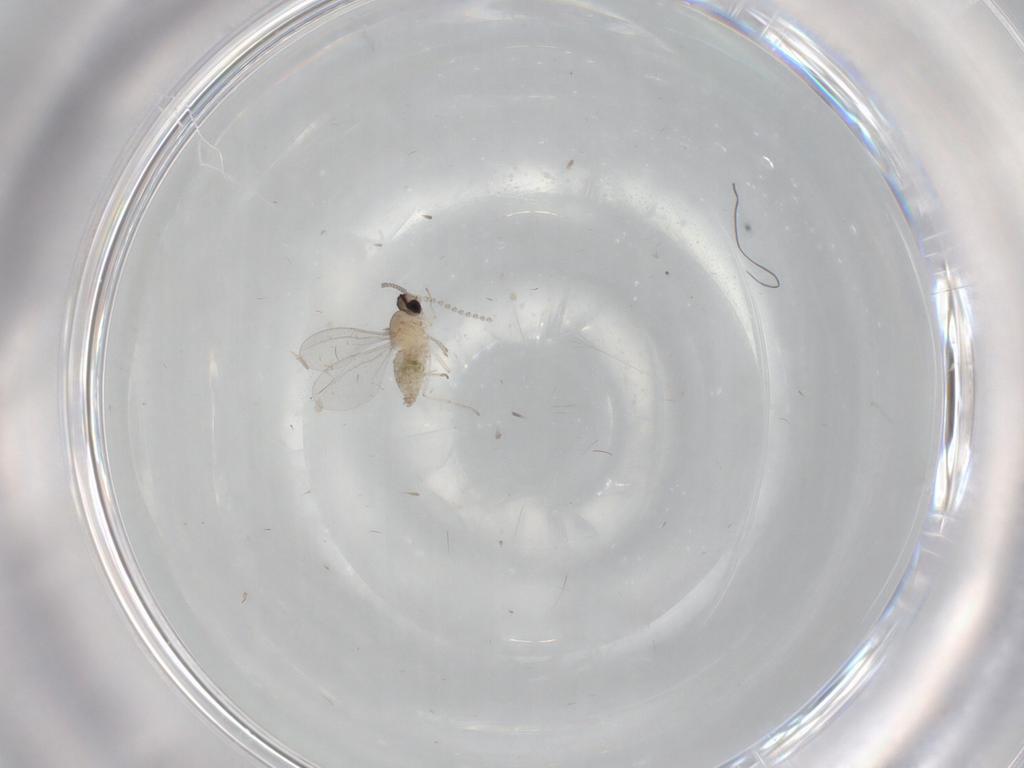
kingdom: Animalia
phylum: Arthropoda
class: Insecta
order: Diptera
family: Cecidomyiidae
